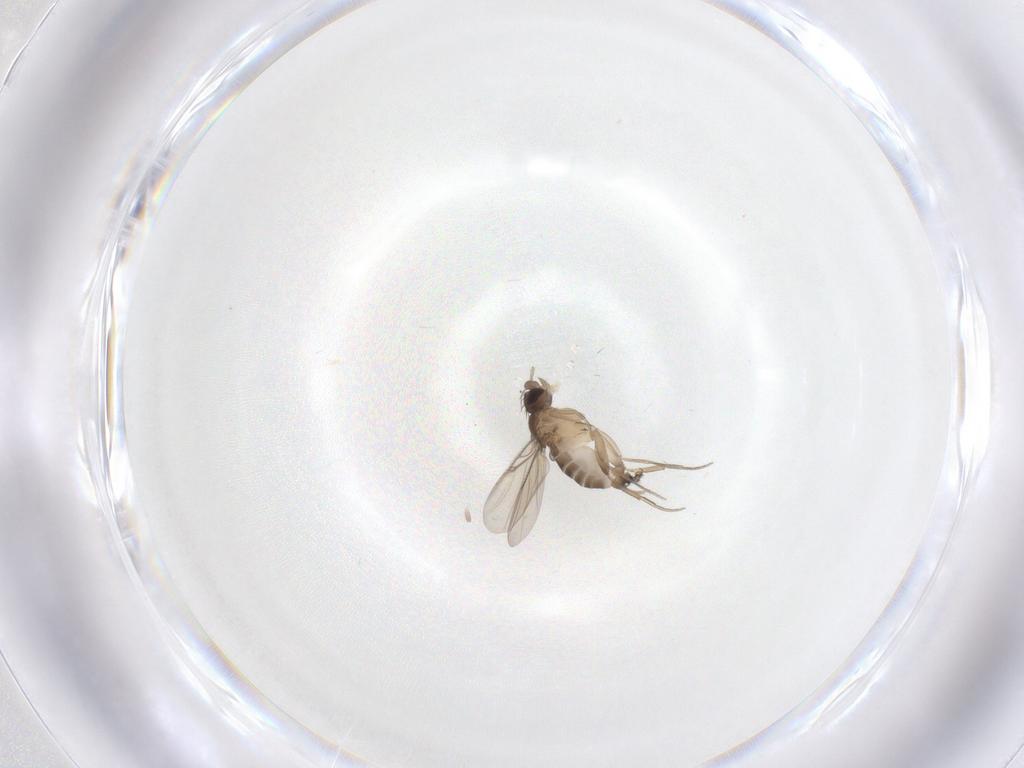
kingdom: Animalia
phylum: Arthropoda
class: Insecta
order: Diptera
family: Phoridae
